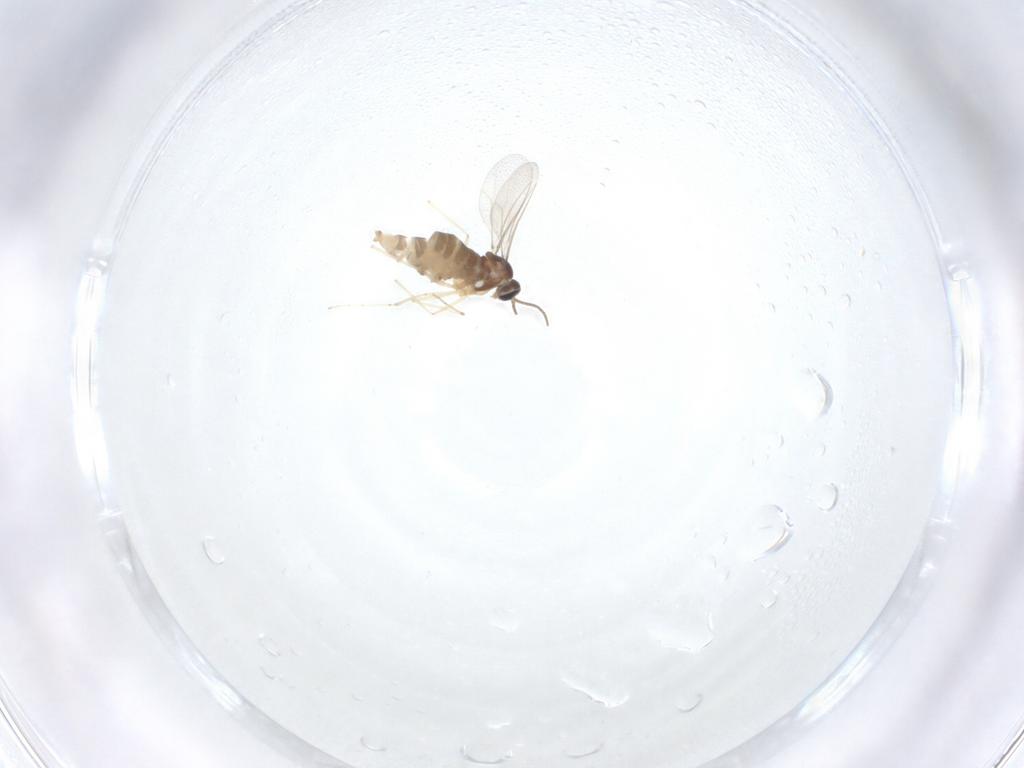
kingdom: Animalia
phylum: Arthropoda
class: Insecta
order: Diptera
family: Cecidomyiidae
